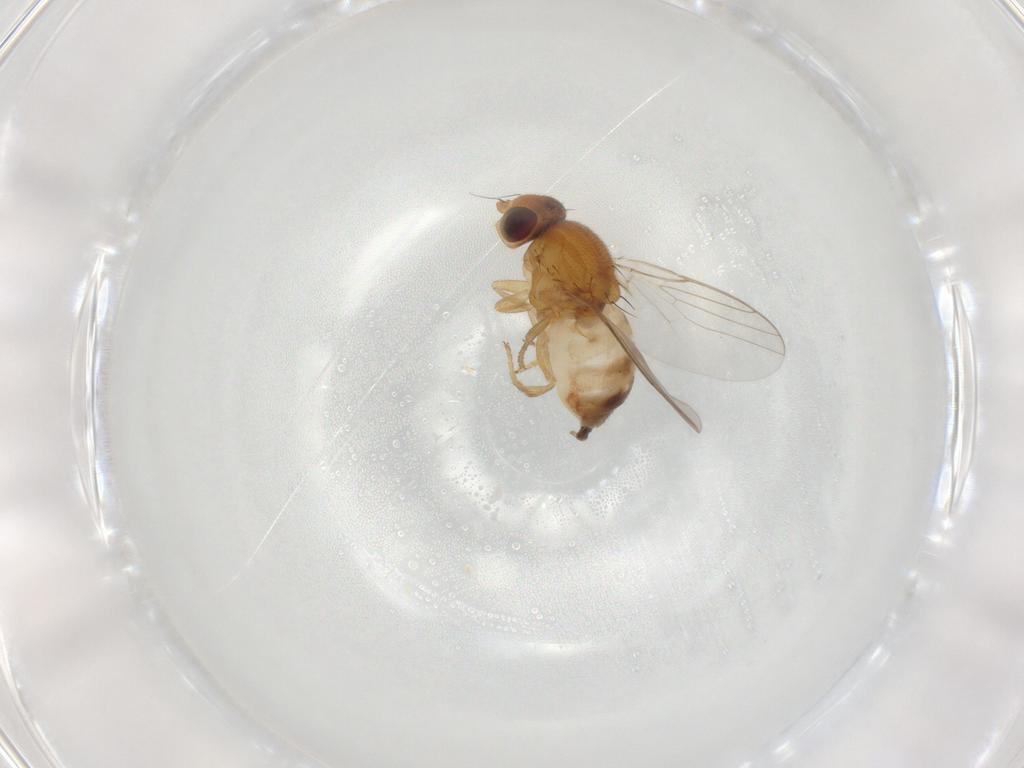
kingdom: Animalia
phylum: Arthropoda
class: Insecta
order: Diptera
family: Chloropidae
